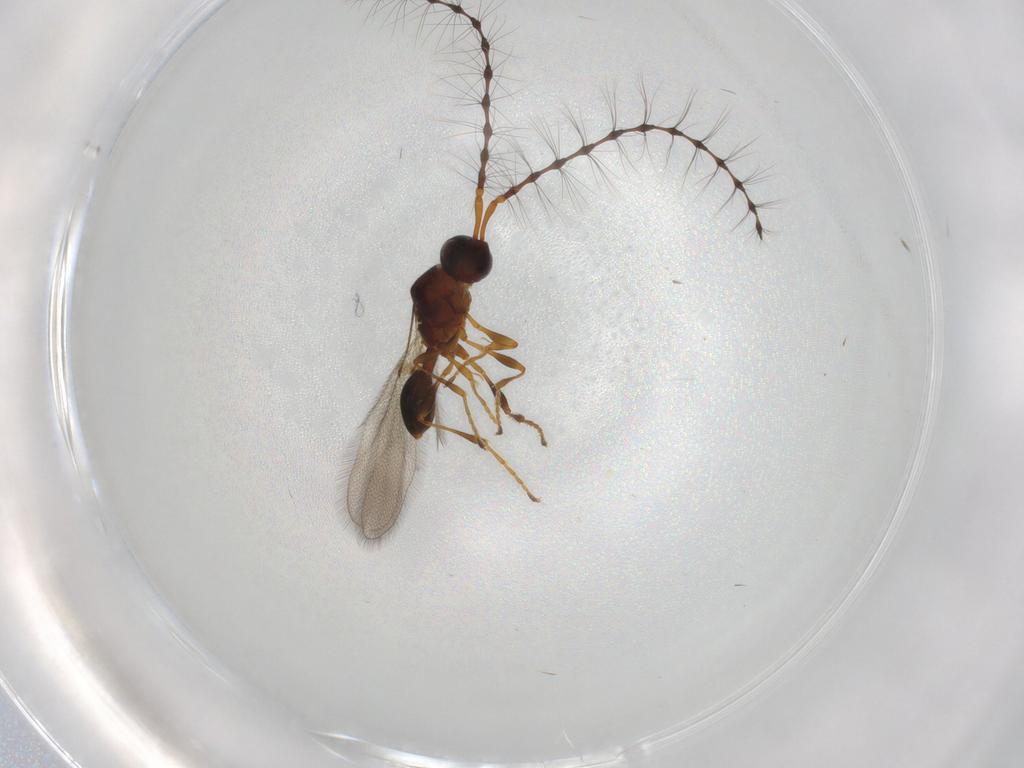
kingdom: Animalia
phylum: Arthropoda
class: Insecta
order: Hymenoptera
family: Diapriidae
